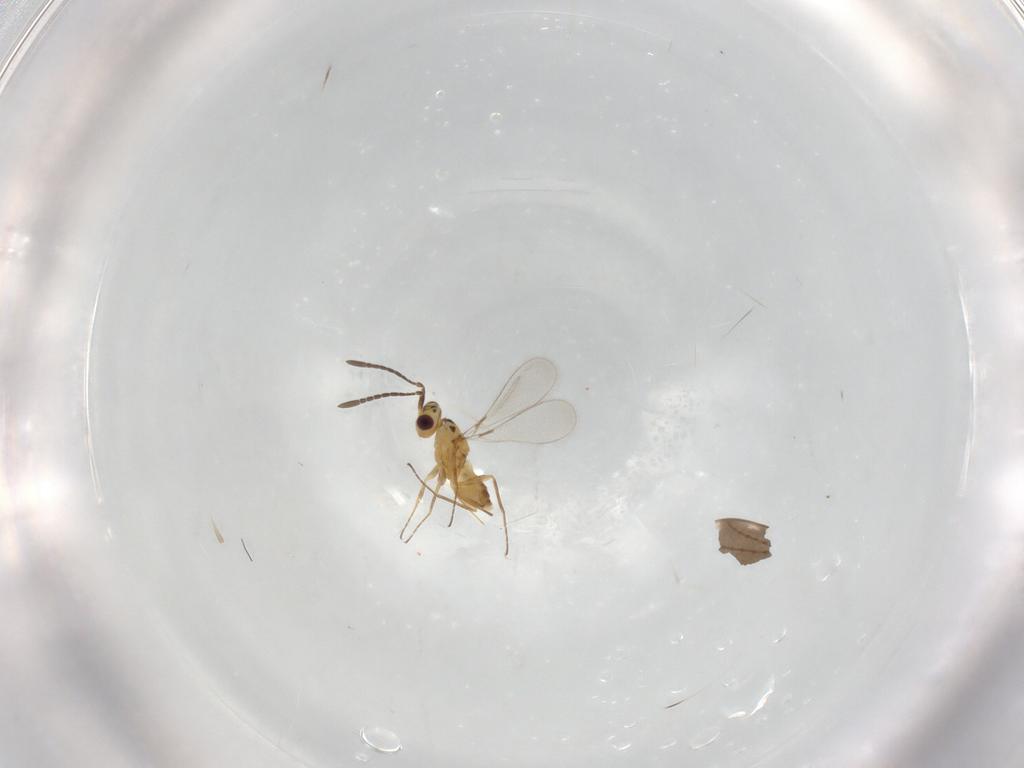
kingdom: Animalia
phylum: Arthropoda
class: Insecta
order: Hymenoptera
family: Mymaridae
